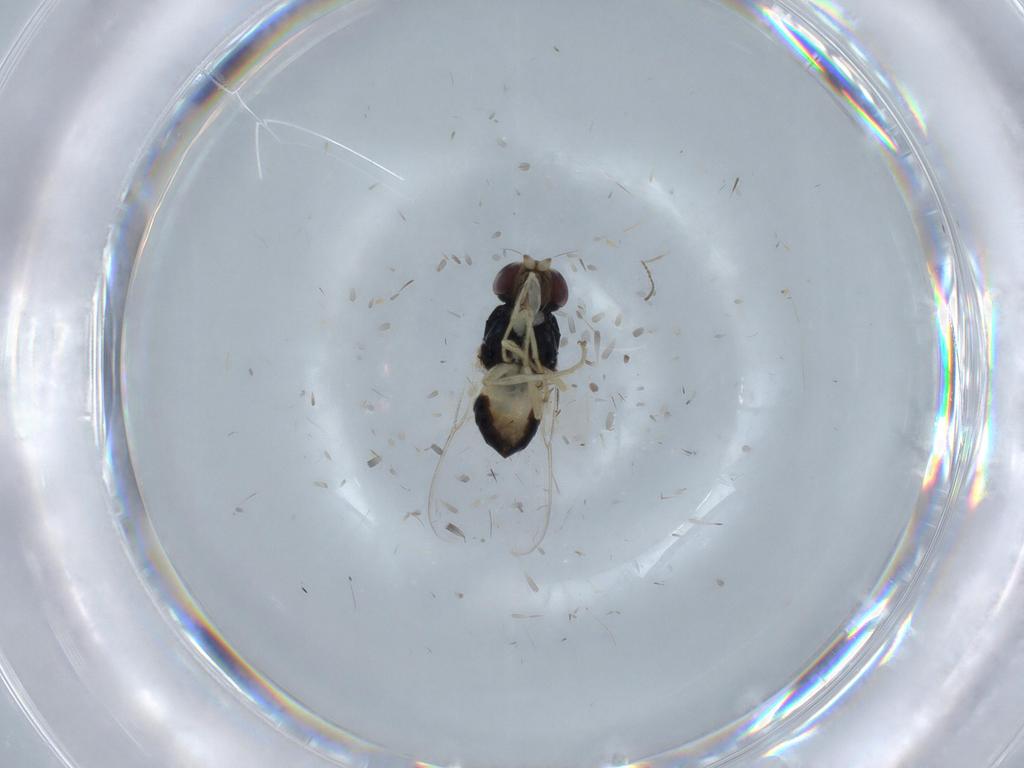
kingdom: Animalia
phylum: Arthropoda
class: Insecta
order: Diptera
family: Chloropidae
